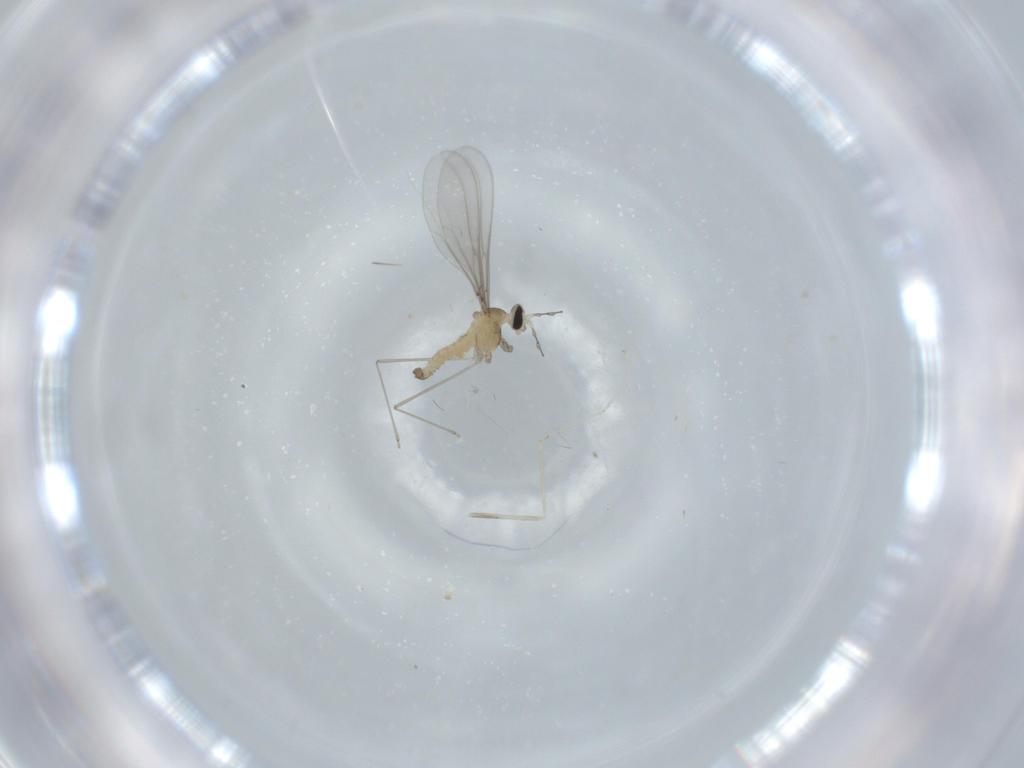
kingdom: Animalia
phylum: Arthropoda
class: Insecta
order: Diptera
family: Cecidomyiidae
